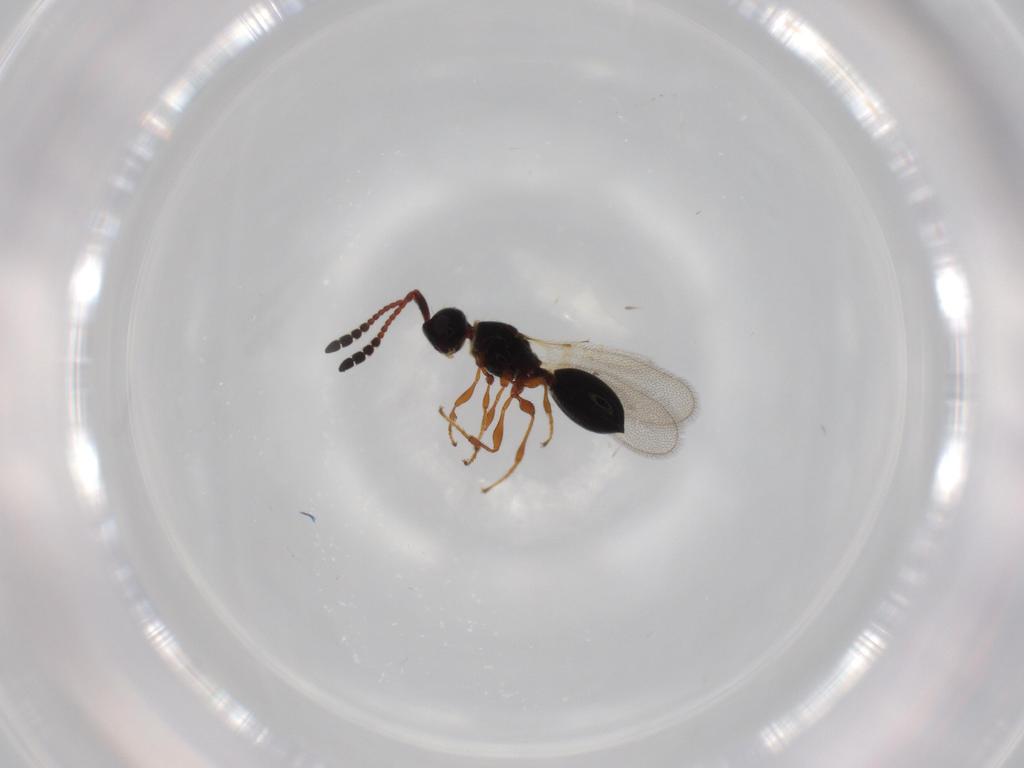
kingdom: Animalia
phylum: Arthropoda
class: Insecta
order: Hymenoptera
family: Diapriidae
